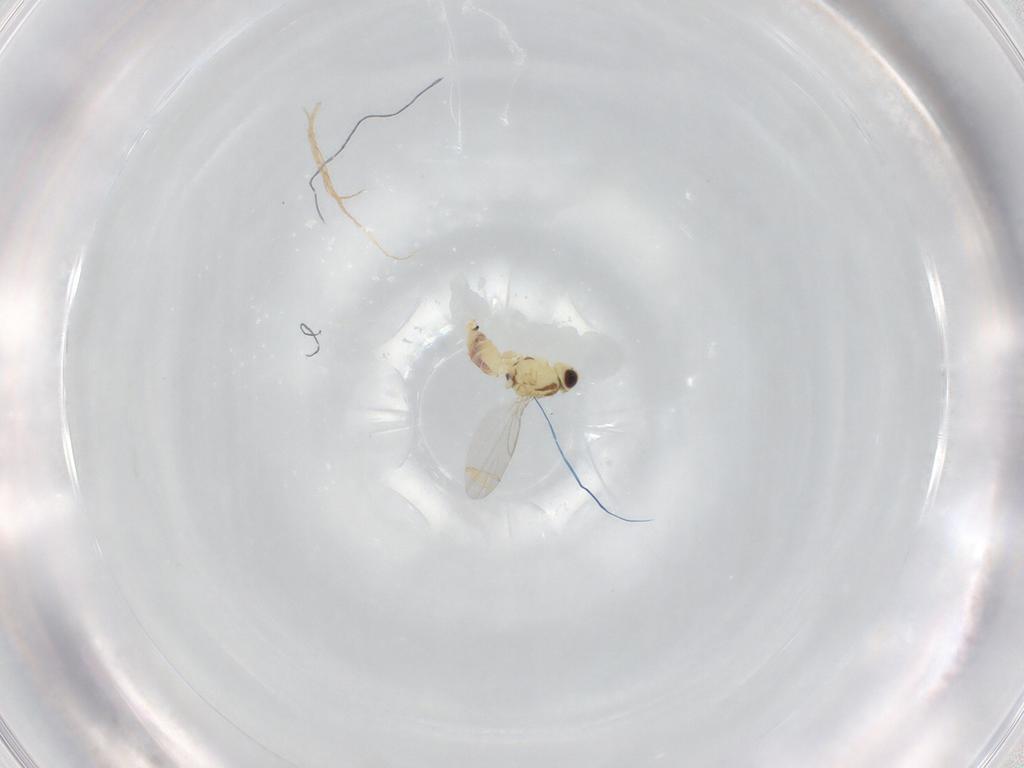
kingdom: Animalia
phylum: Arthropoda
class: Insecta
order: Diptera
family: Agromyzidae
